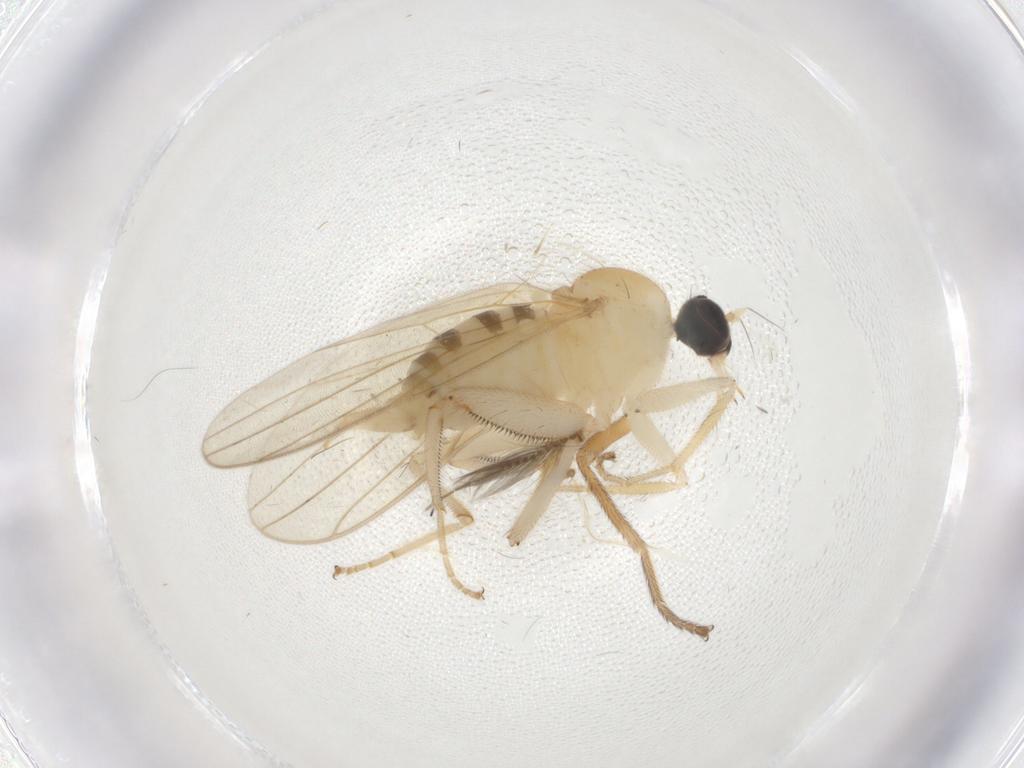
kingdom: Animalia
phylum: Arthropoda
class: Insecta
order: Diptera
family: Hybotidae
